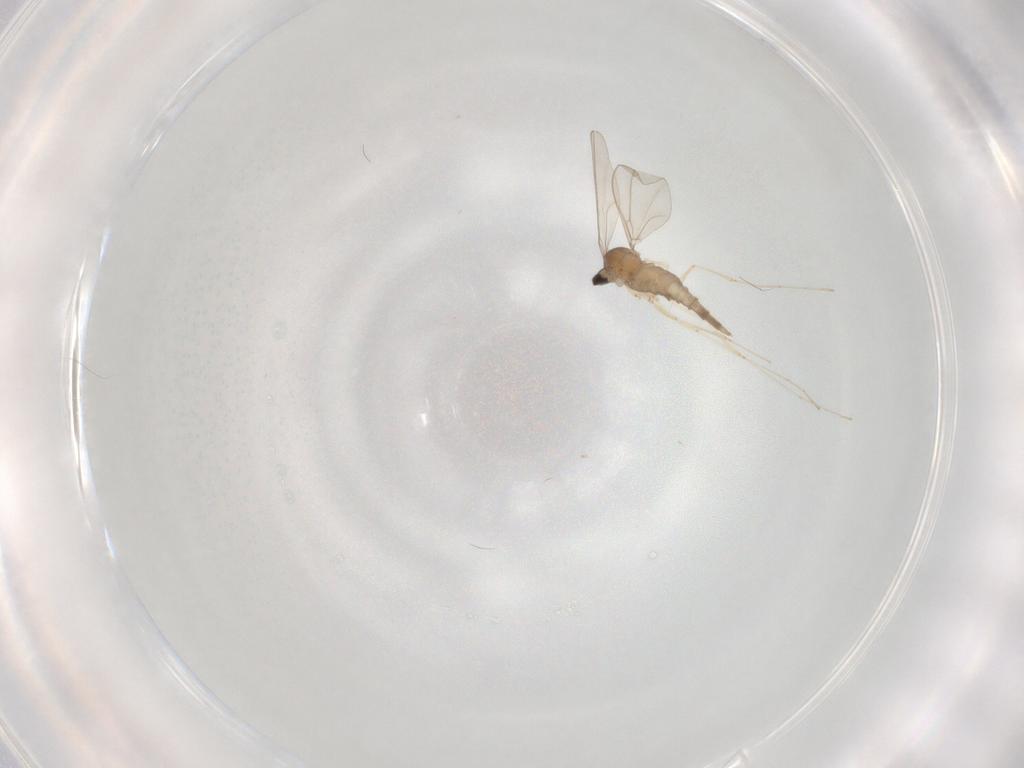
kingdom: Animalia
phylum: Arthropoda
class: Insecta
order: Diptera
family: Cecidomyiidae
